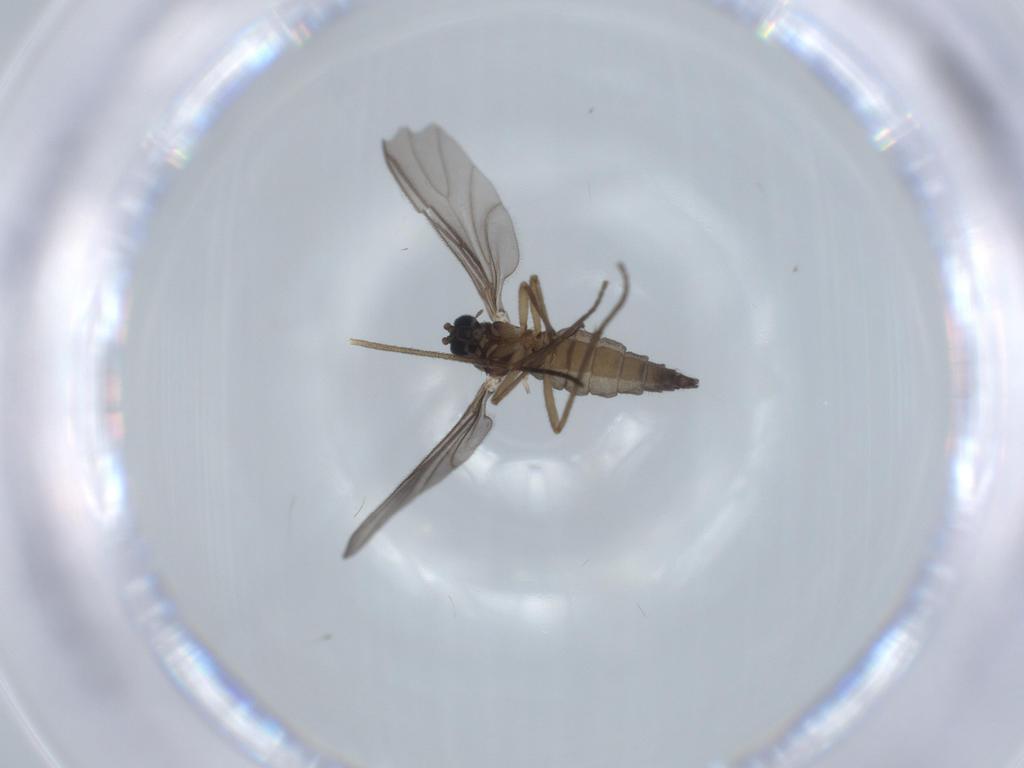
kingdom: Animalia
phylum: Arthropoda
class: Insecta
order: Diptera
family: Sciaridae
